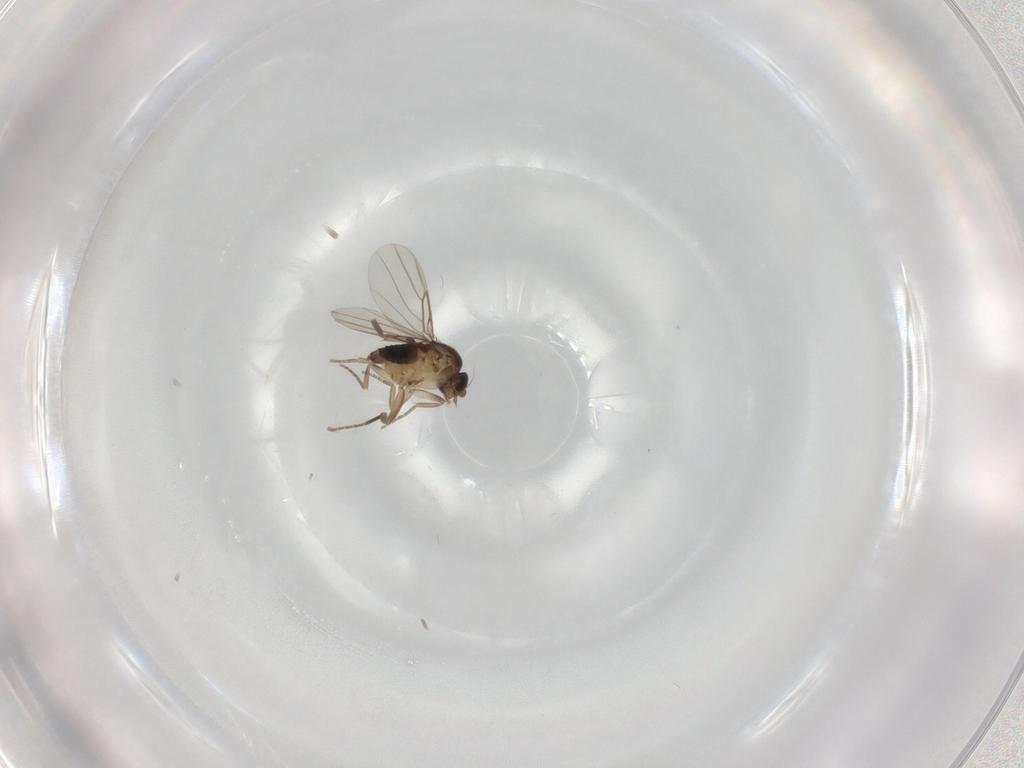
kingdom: Animalia
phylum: Arthropoda
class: Insecta
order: Diptera
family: Phoridae
